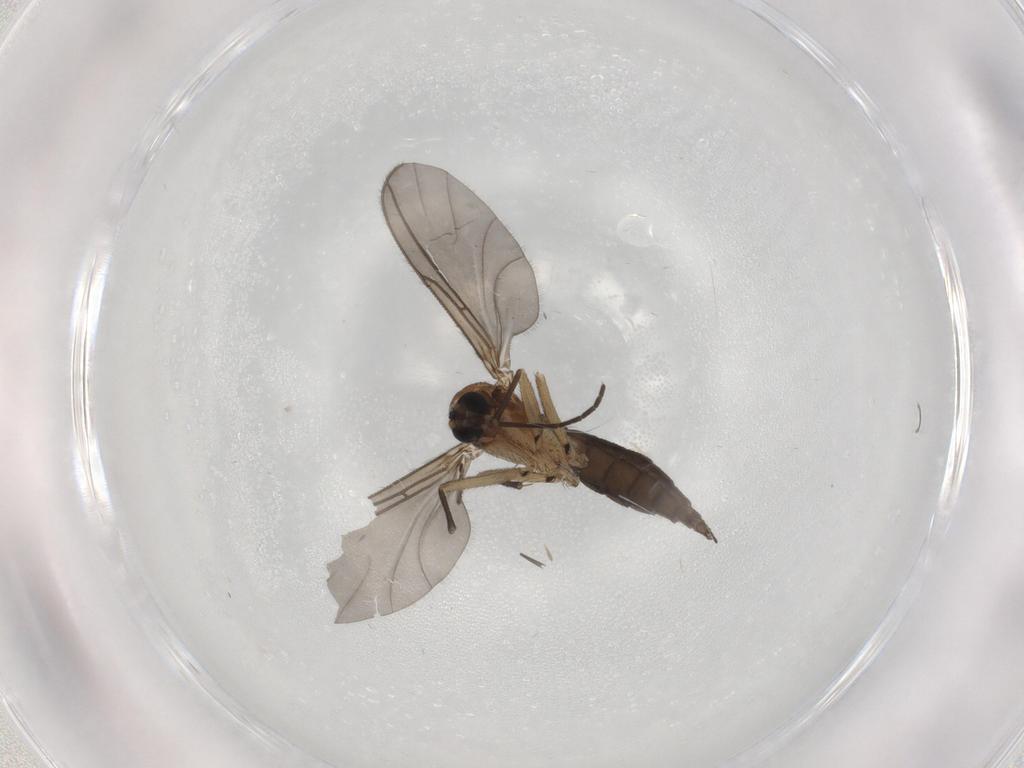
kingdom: Animalia
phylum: Arthropoda
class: Insecta
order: Diptera
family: Sciaridae
